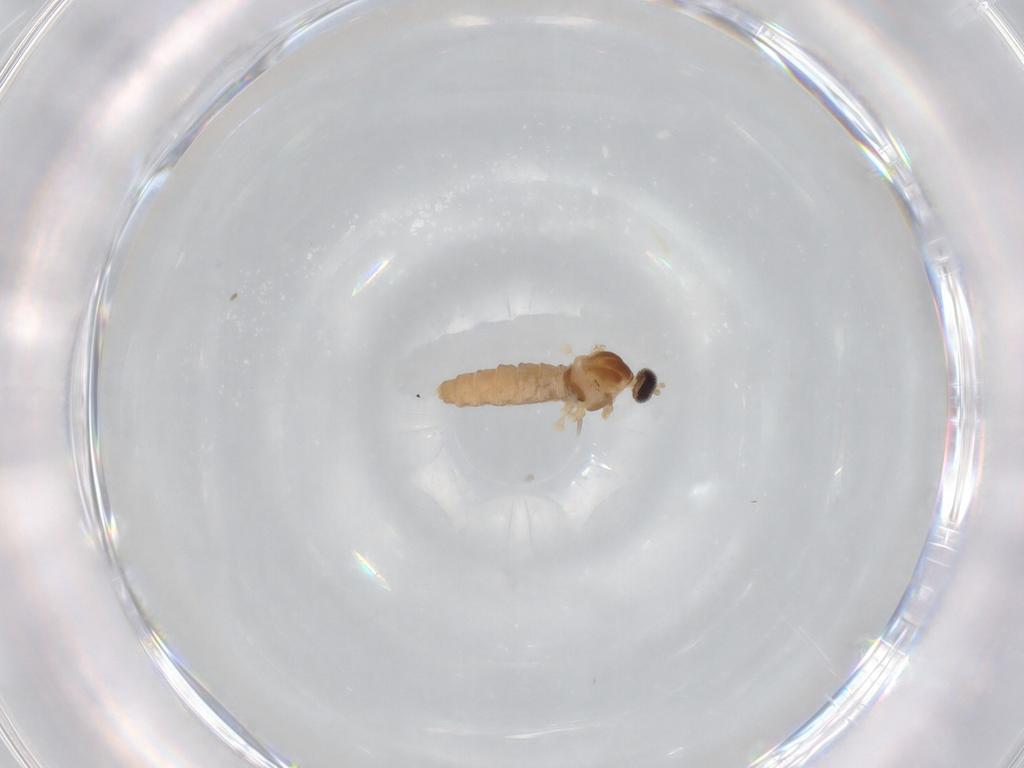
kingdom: Animalia
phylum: Arthropoda
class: Insecta
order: Diptera
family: Cecidomyiidae
